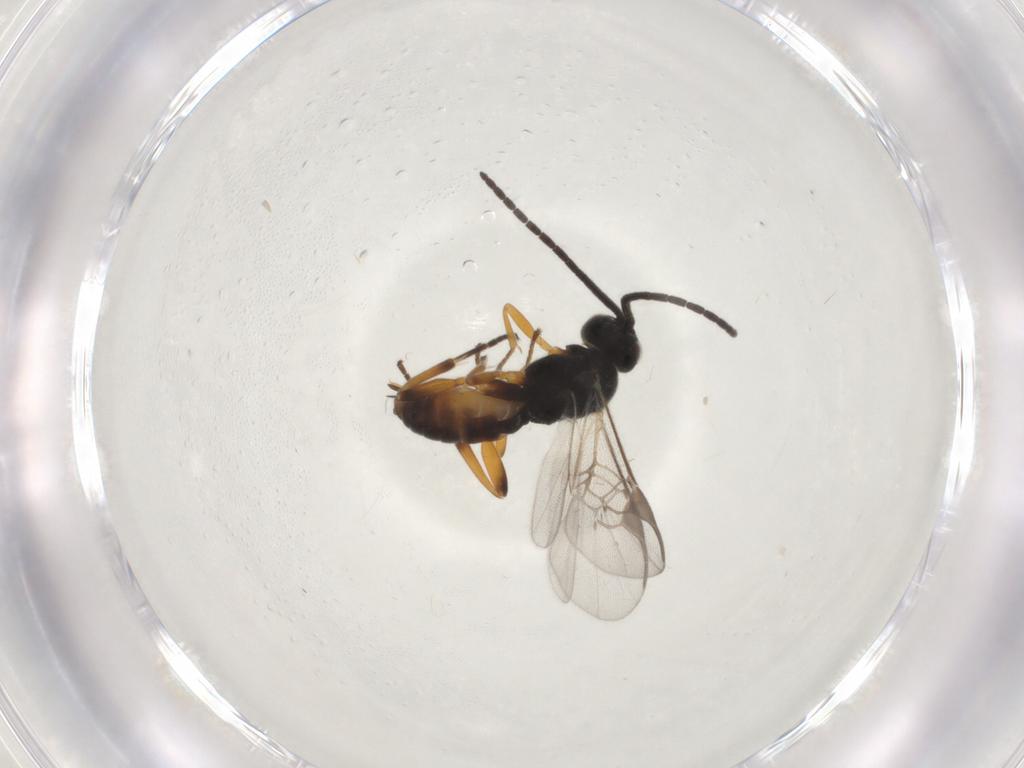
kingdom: Animalia
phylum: Arthropoda
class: Insecta
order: Hymenoptera
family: Braconidae
